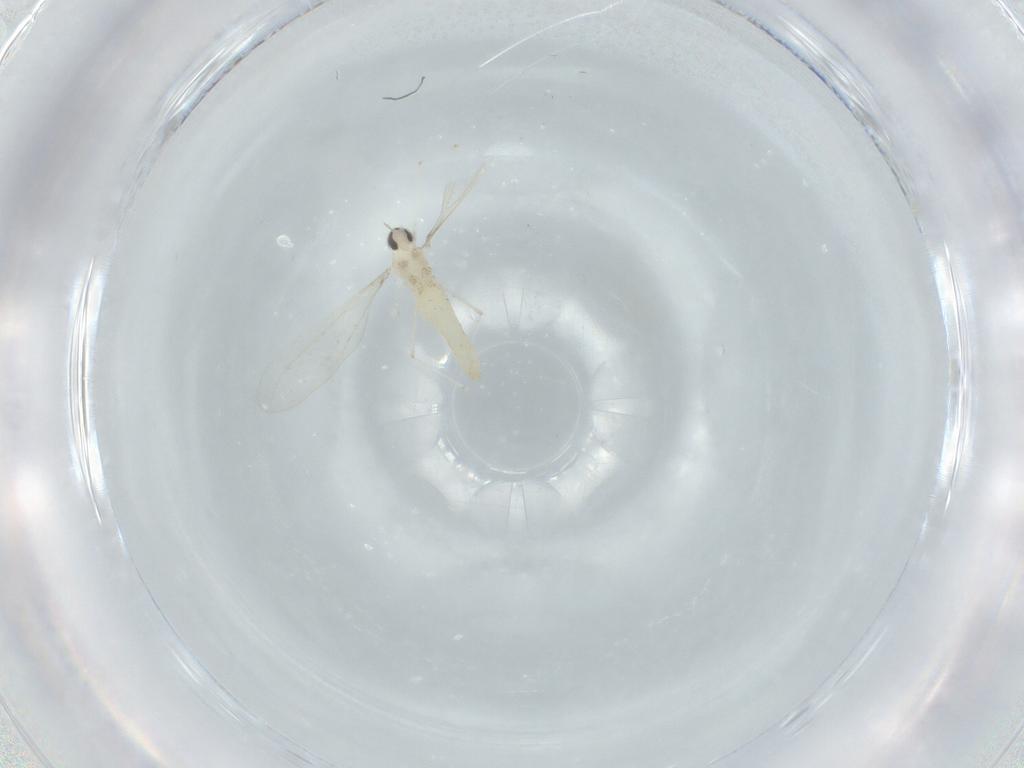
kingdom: Animalia
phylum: Arthropoda
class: Insecta
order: Diptera
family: Cecidomyiidae
